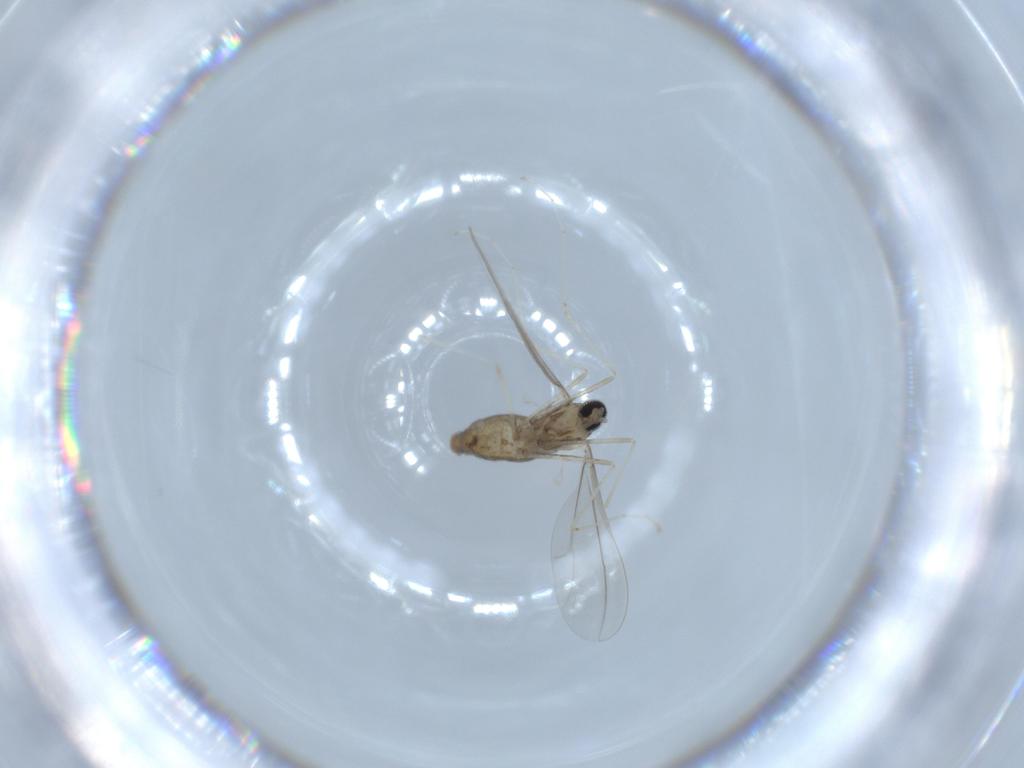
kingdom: Animalia
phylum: Arthropoda
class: Insecta
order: Diptera
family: Cecidomyiidae
